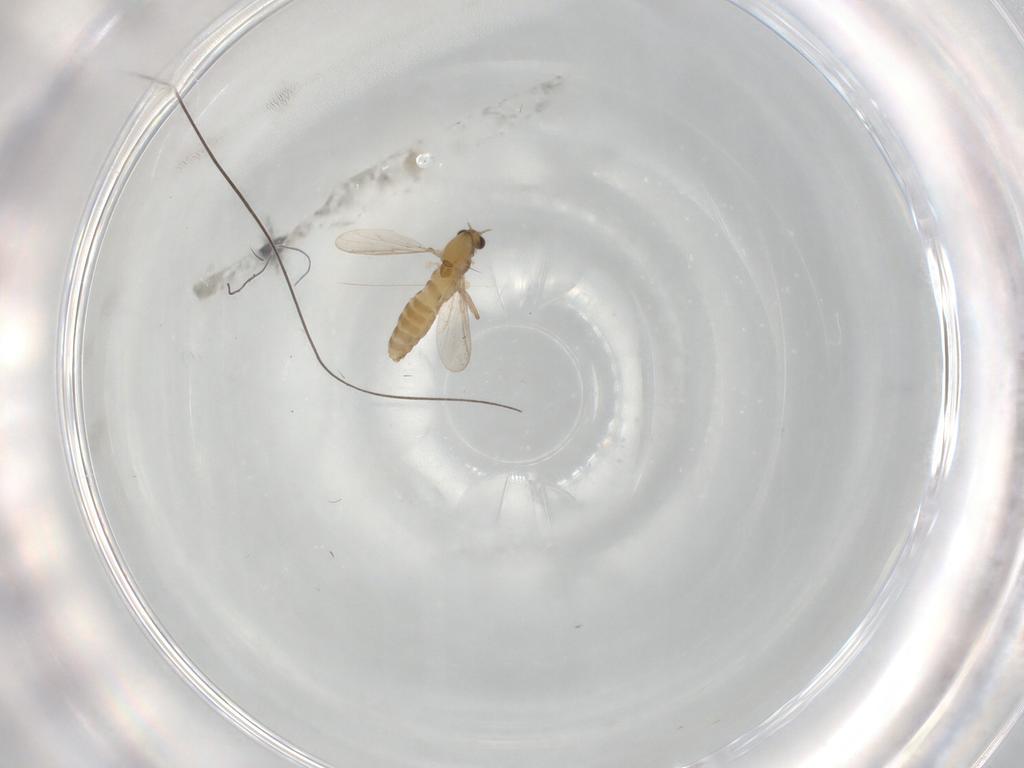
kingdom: Animalia
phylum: Arthropoda
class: Insecta
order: Diptera
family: Chironomidae
